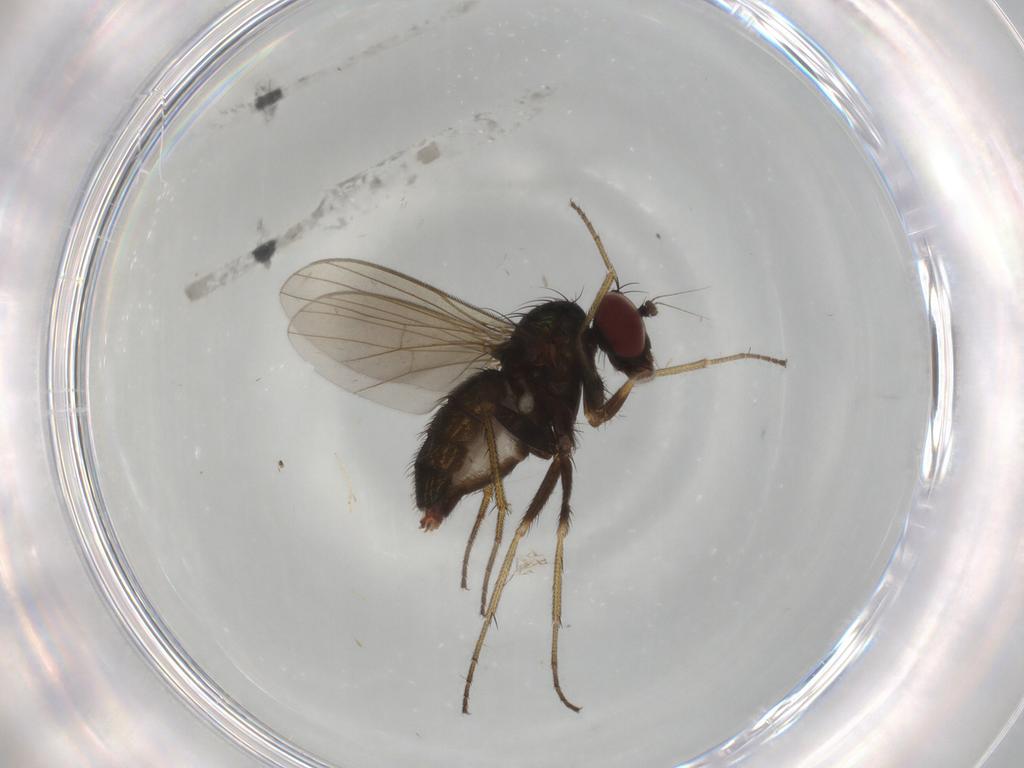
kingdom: Animalia
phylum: Arthropoda
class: Insecta
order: Diptera
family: Dolichopodidae
